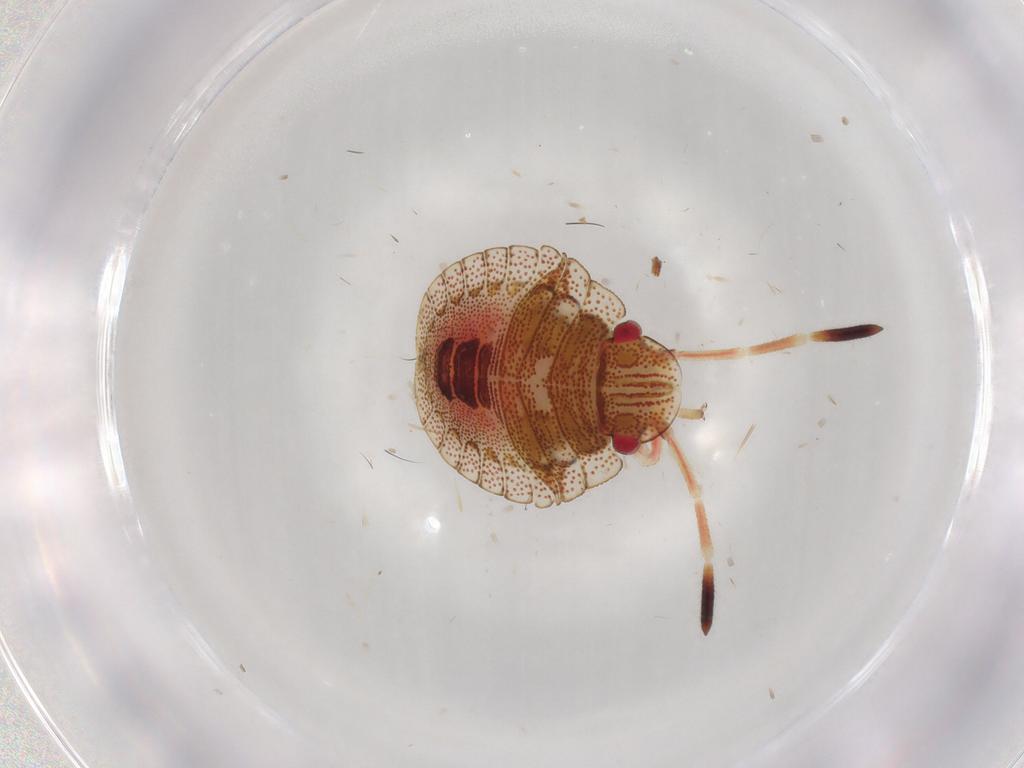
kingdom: Animalia
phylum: Arthropoda
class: Insecta
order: Hemiptera
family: Pentatomidae
